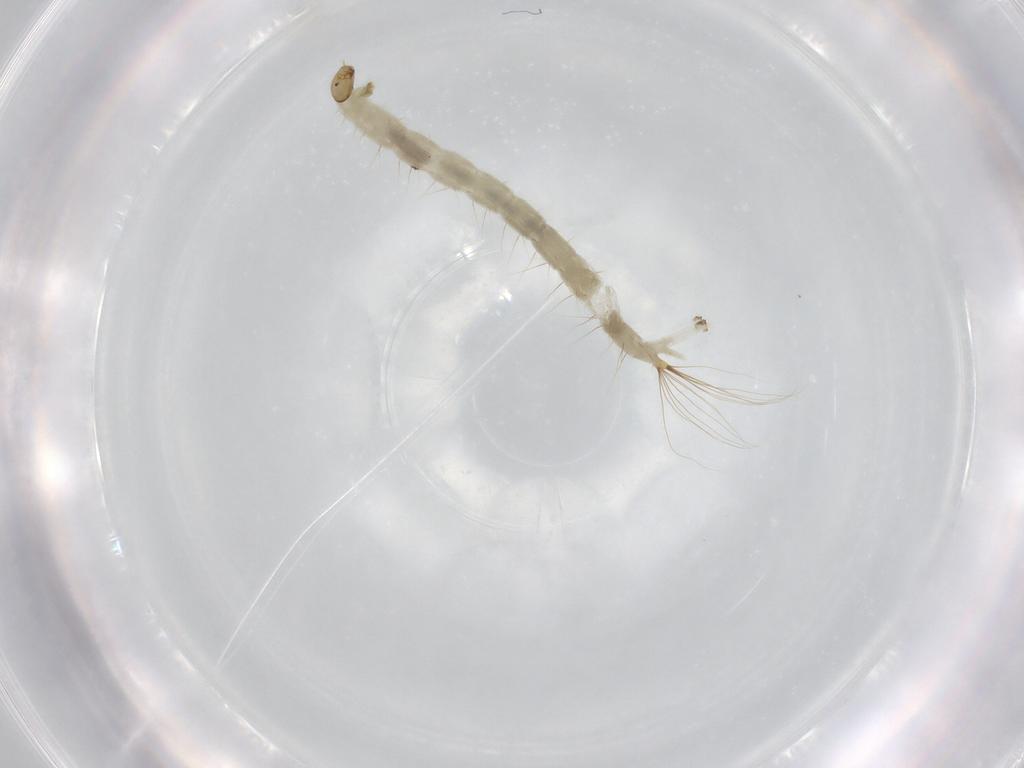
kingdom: Animalia
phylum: Arthropoda
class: Insecta
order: Diptera
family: Chironomidae
